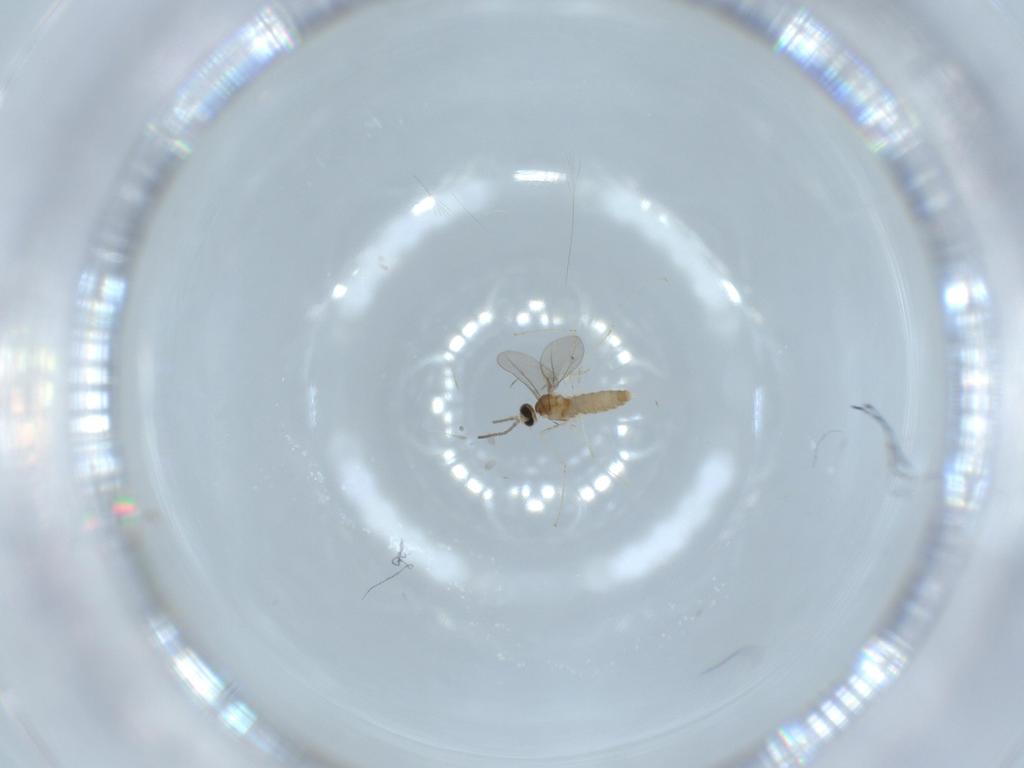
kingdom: Animalia
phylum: Arthropoda
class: Insecta
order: Diptera
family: Cecidomyiidae
